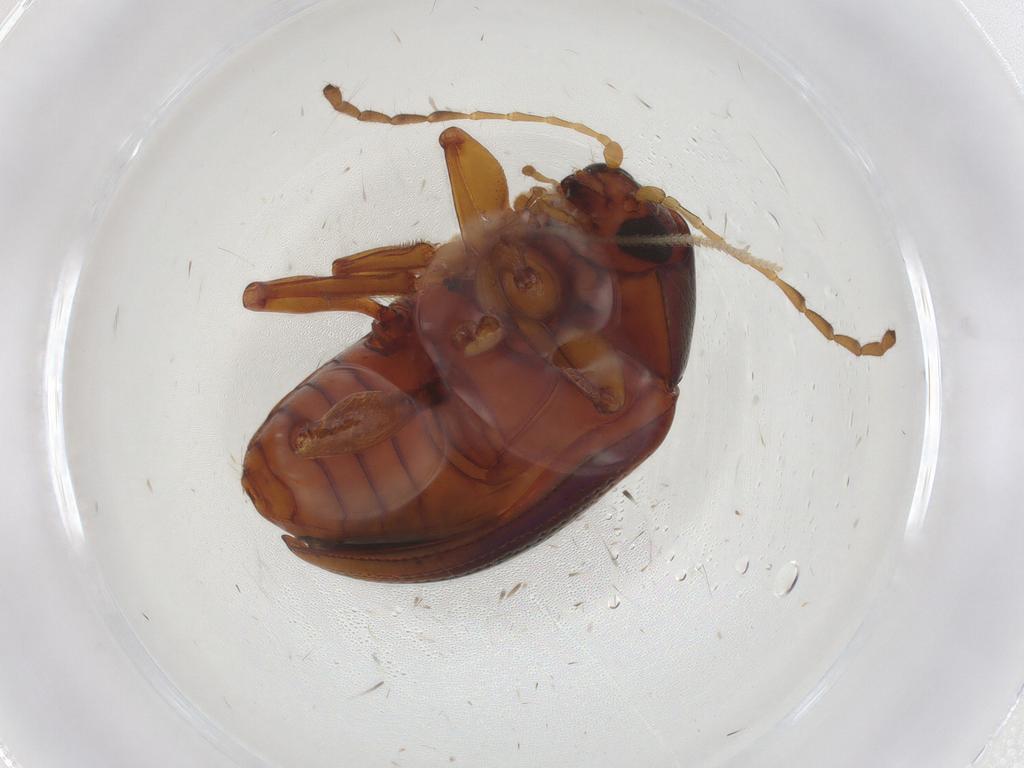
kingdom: Animalia
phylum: Arthropoda
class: Insecta
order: Coleoptera
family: Chrysomelidae
